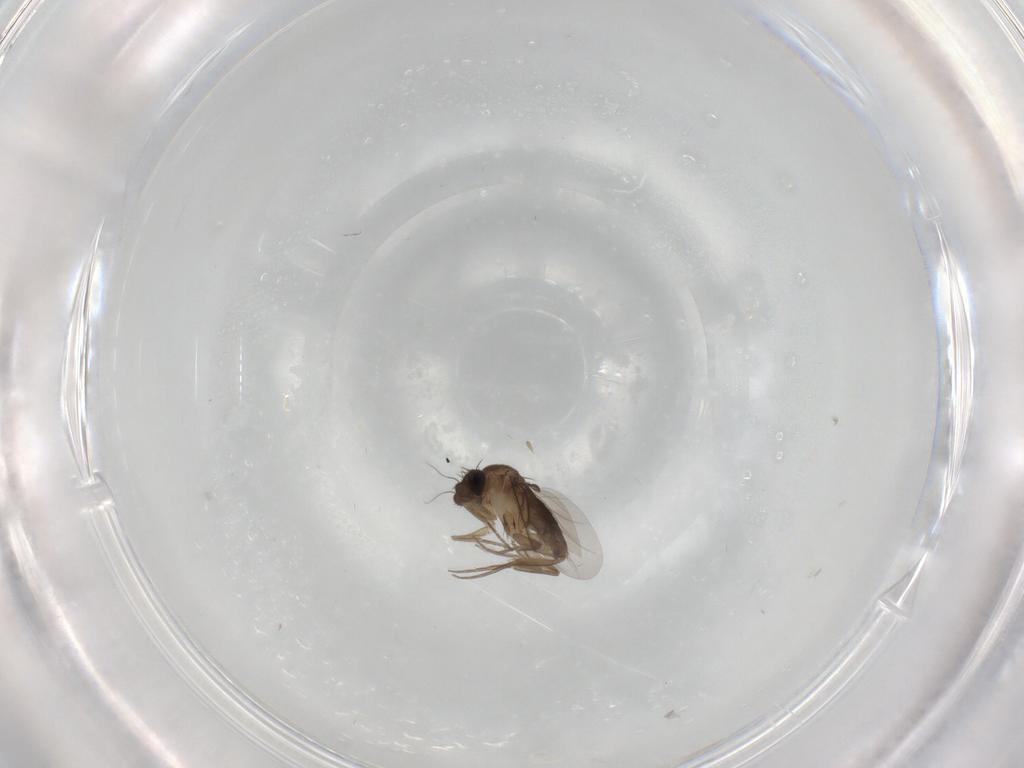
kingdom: Animalia
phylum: Arthropoda
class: Insecta
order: Diptera
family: Phoridae
